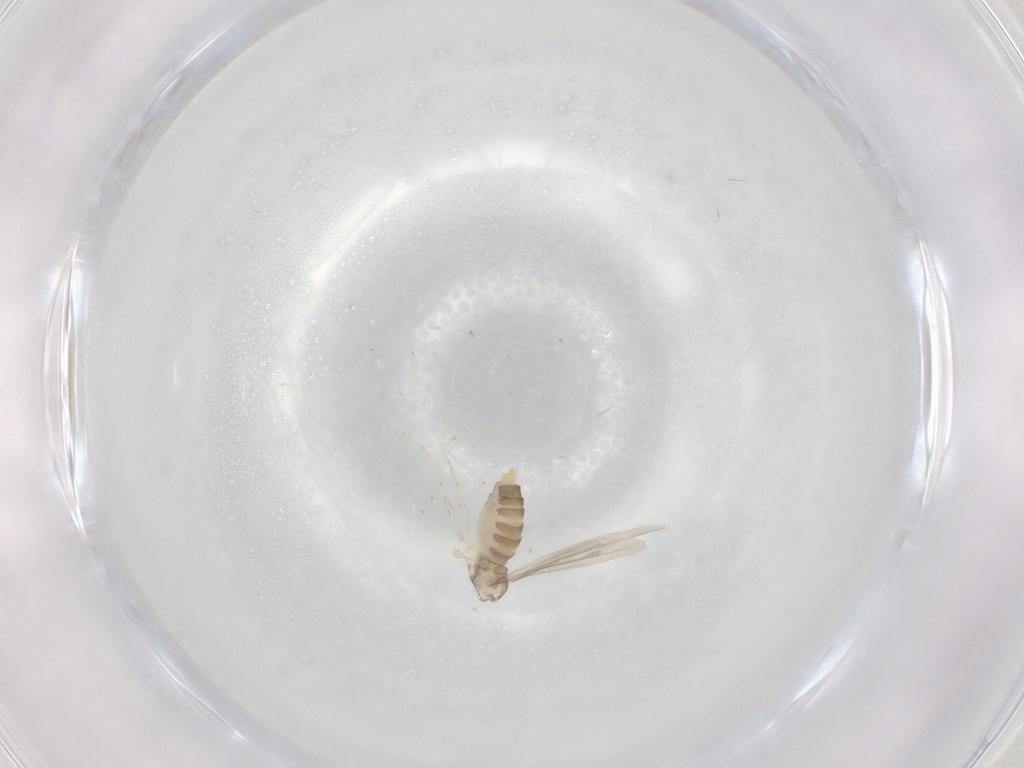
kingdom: Animalia
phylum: Arthropoda
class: Insecta
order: Diptera
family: Cecidomyiidae
